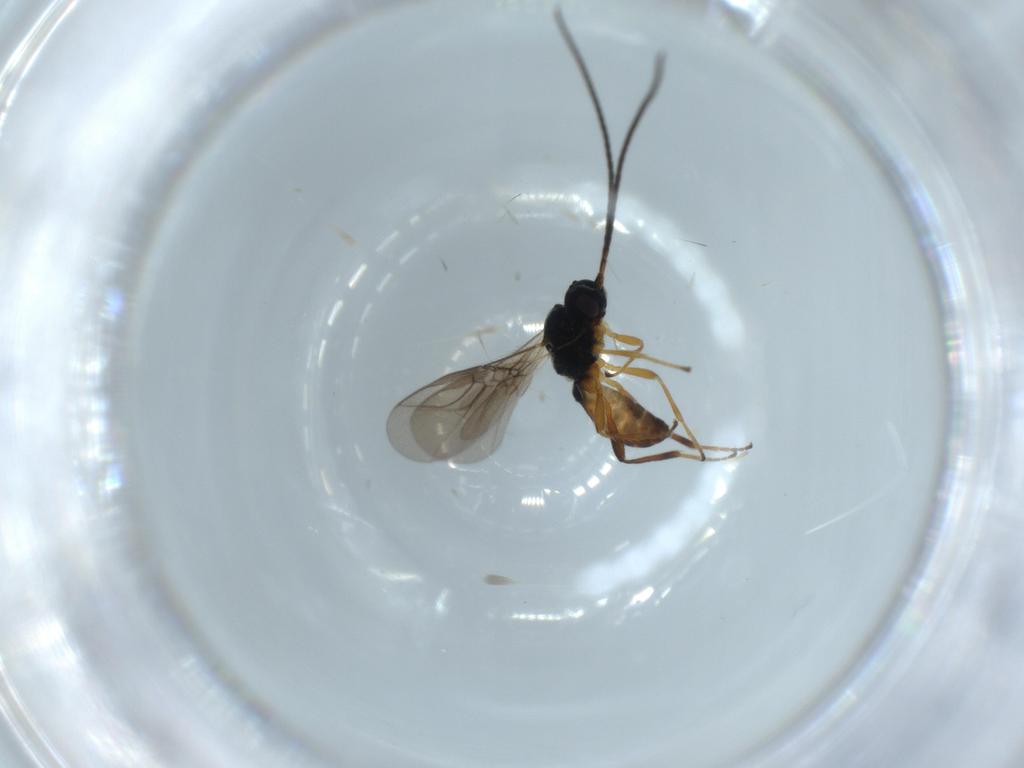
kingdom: Animalia
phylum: Arthropoda
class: Insecta
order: Hymenoptera
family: Braconidae
